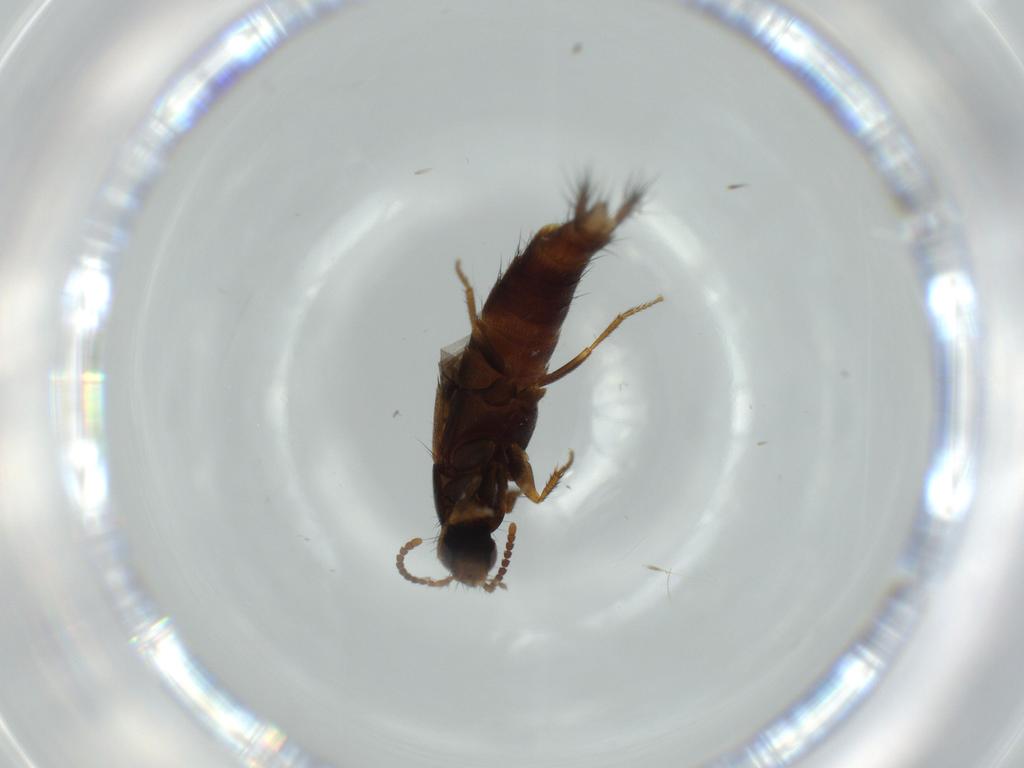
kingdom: Animalia
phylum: Arthropoda
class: Insecta
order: Coleoptera
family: Staphylinidae
